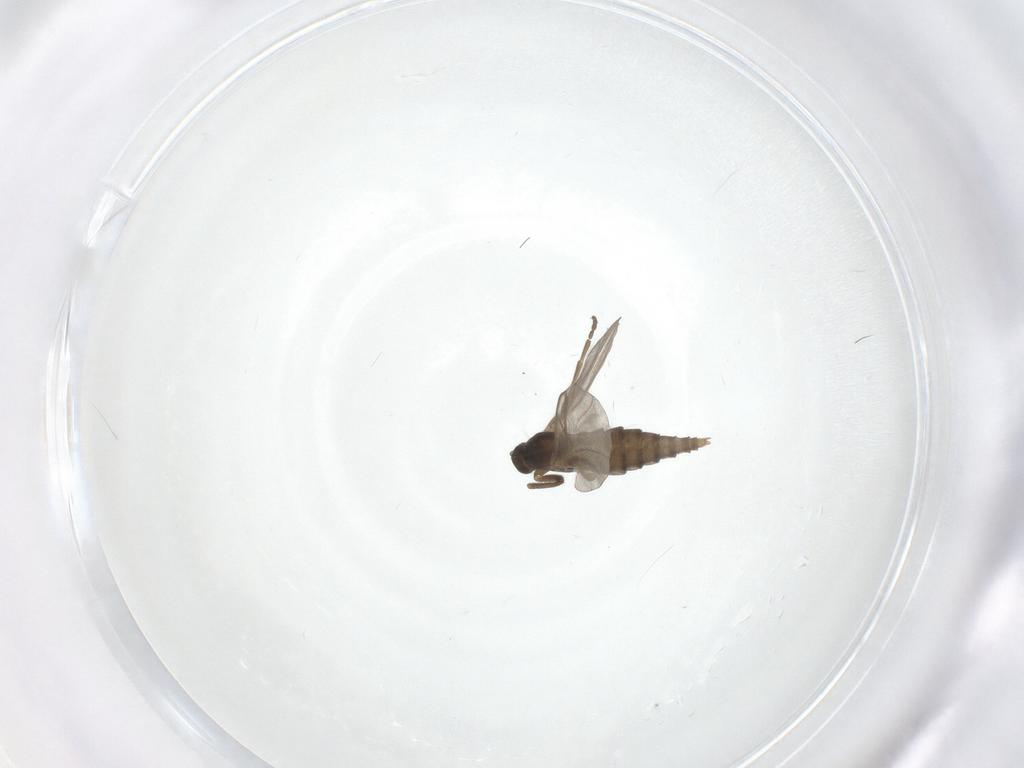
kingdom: Animalia
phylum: Arthropoda
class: Insecta
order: Diptera
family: Cecidomyiidae
